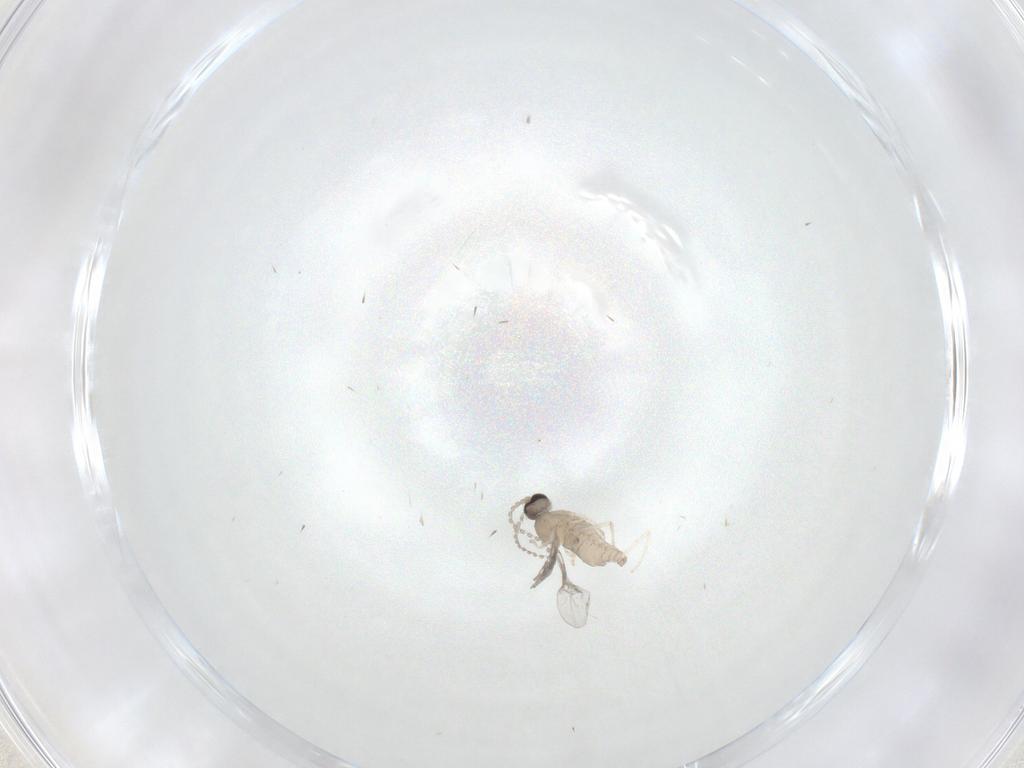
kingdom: Animalia
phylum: Arthropoda
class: Insecta
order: Diptera
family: Cecidomyiidae
